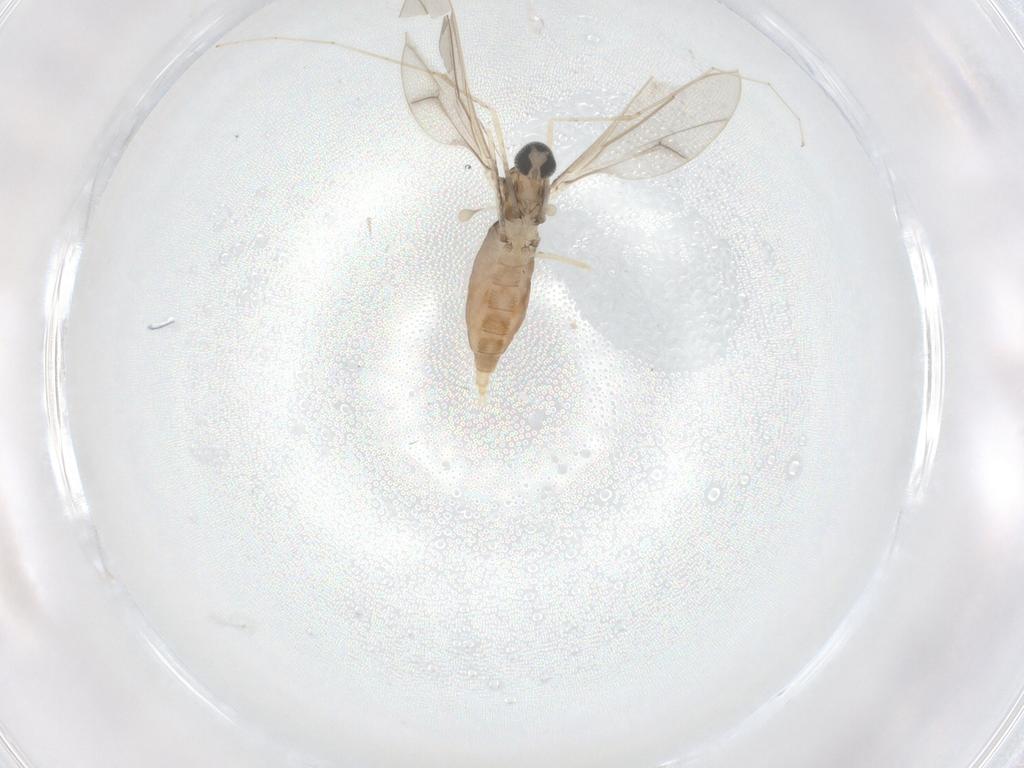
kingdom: Animalia
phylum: Arthropoda
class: Insecta
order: Diptera
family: Cecidomyiidae
